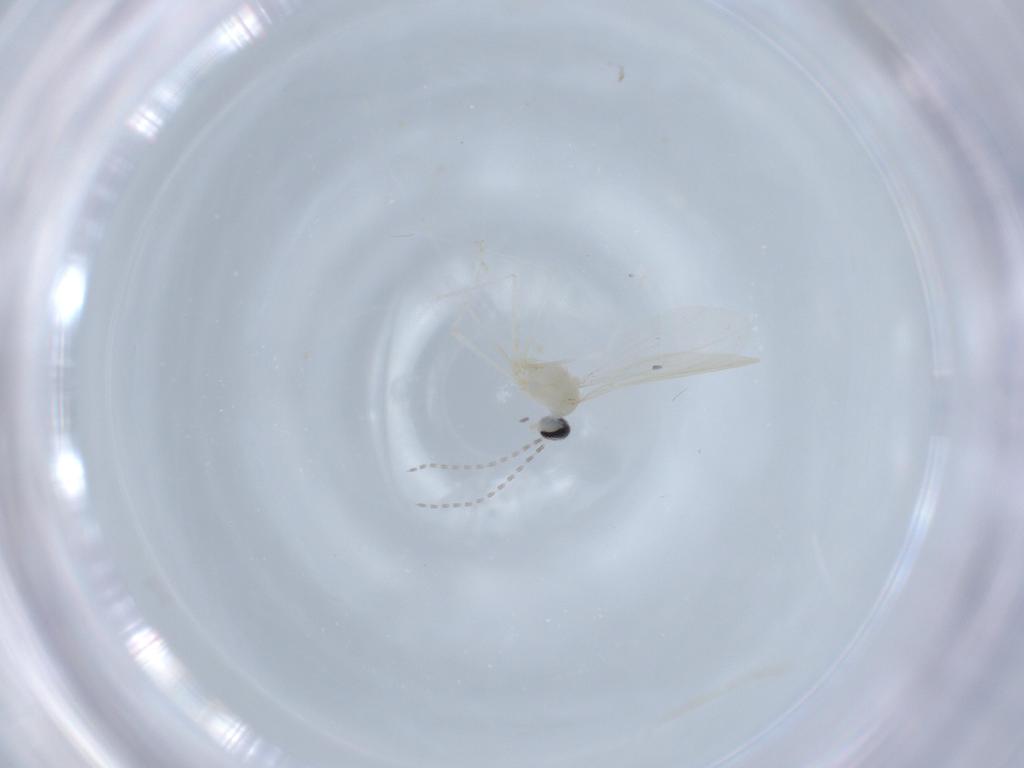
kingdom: Animalia
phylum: Arthropoda
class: Insecta
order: Diptera
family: Cecidomyiidae
